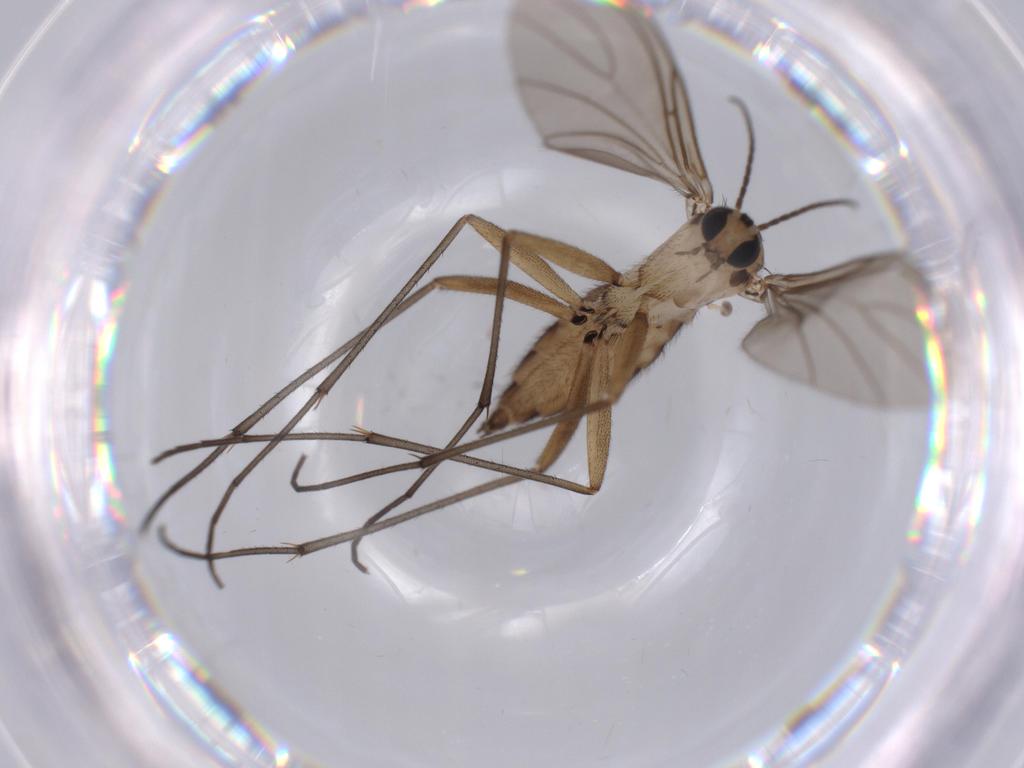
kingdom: Animalia
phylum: Arthropoda
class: Insecta
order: Diptera
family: Sciaridae
